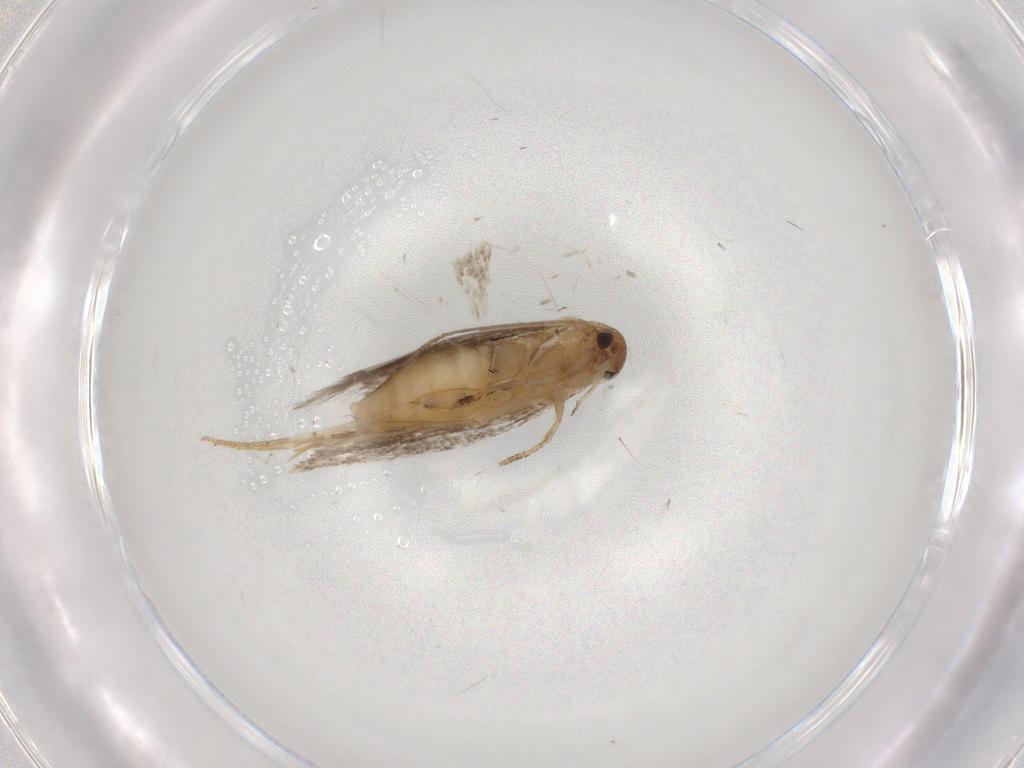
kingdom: Animalia
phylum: Arthropoda
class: Insecta
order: Lepidoptera
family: Elachistidae
